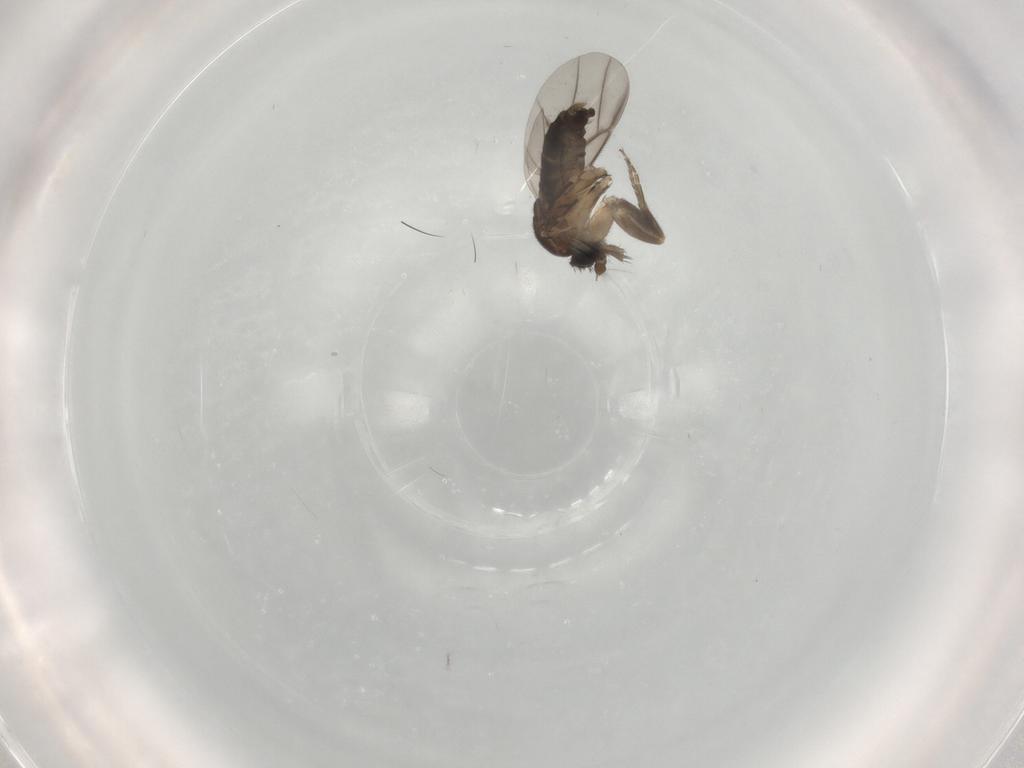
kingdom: Animalia
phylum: Arthropoda
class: Insecta
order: Diptera
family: Phoridae
